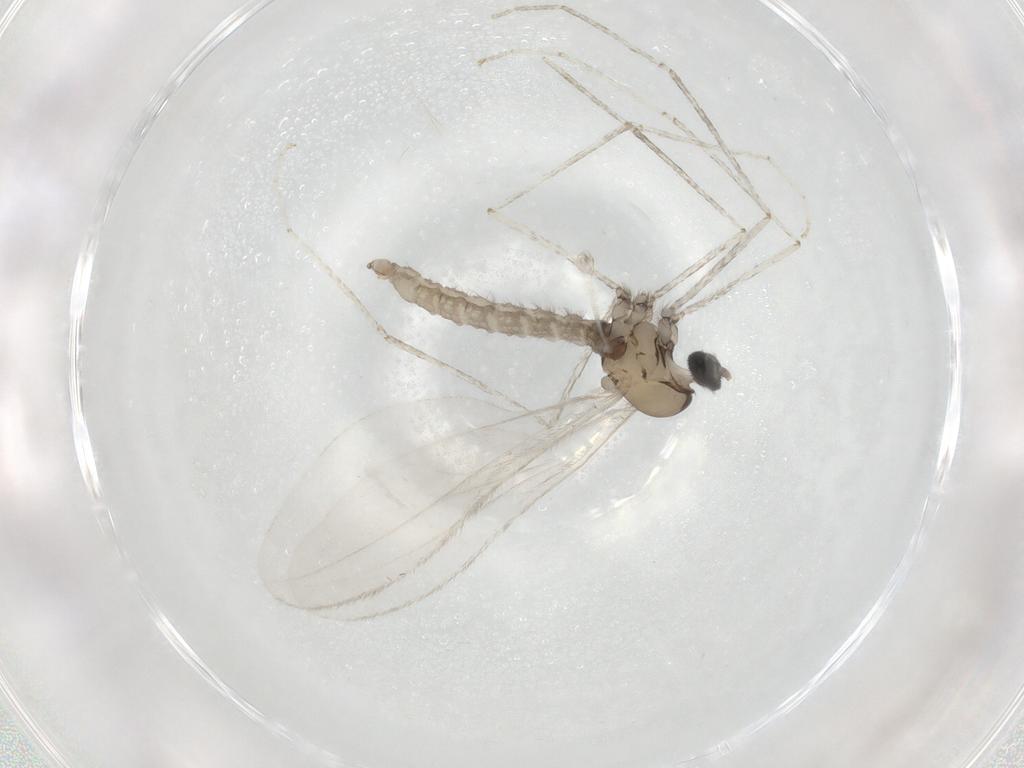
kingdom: Animalia
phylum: Arthropoda
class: Insecta
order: Diptera
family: Cecidomyiidae
